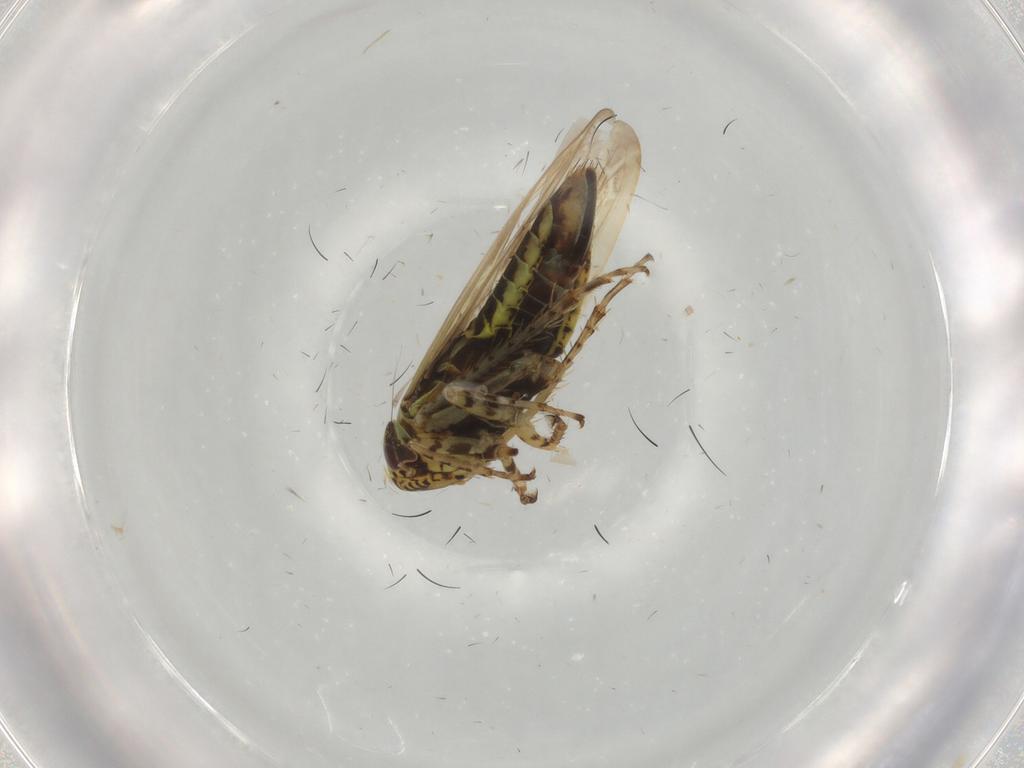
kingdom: Animalia
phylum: Arthropoda
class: Insecta
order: Hemiptera
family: Cicadellidae
